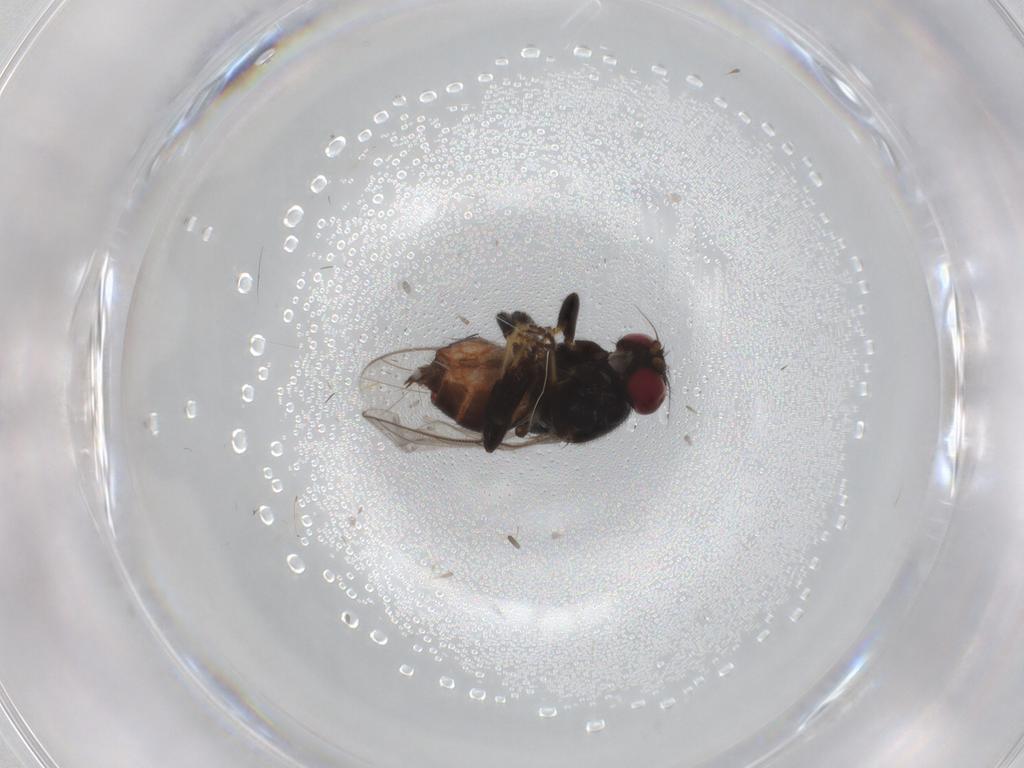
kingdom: Animalia
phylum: Arthropoda
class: Insecta
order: Diptera
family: Chloropidae
